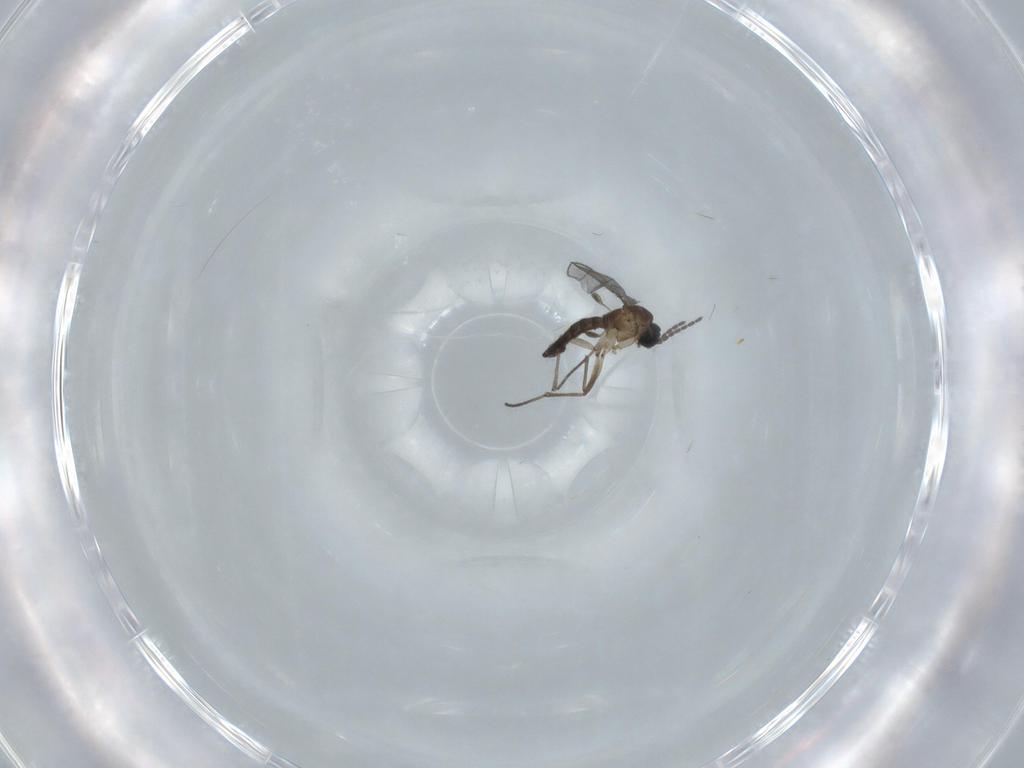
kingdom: Animalia
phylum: Arthropoda
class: Insecta
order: Diptera
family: Sciaridae
